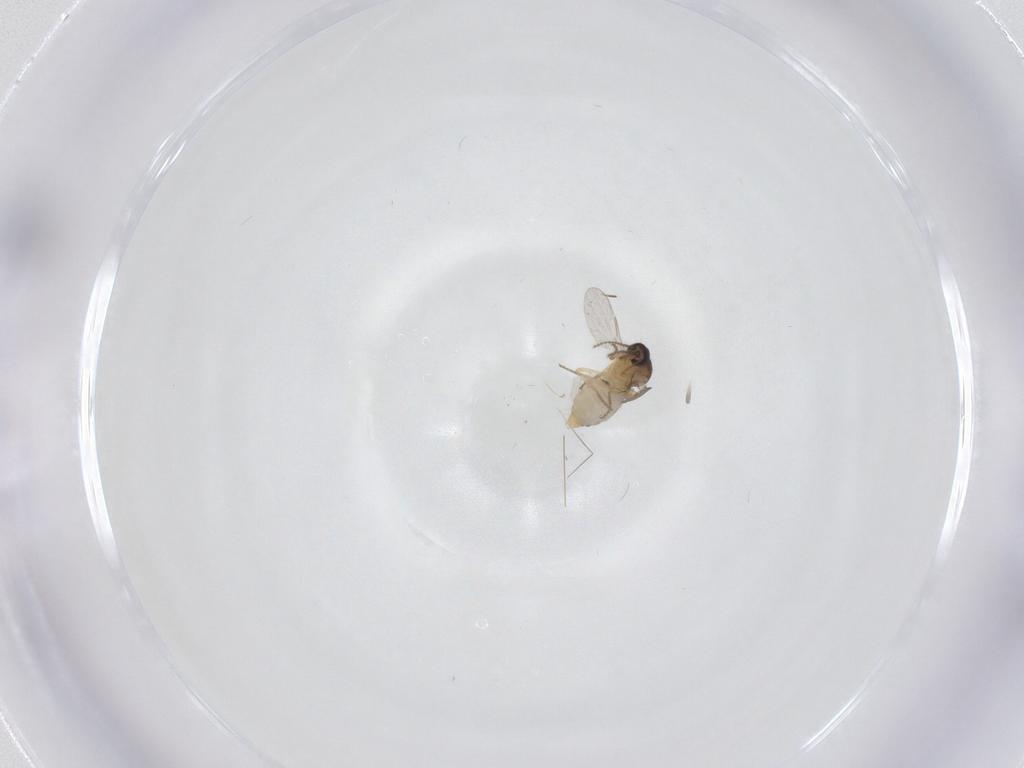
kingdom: Animalia
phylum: Arthropoda
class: Insecta
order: Diptera
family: Ceratopogonidae
